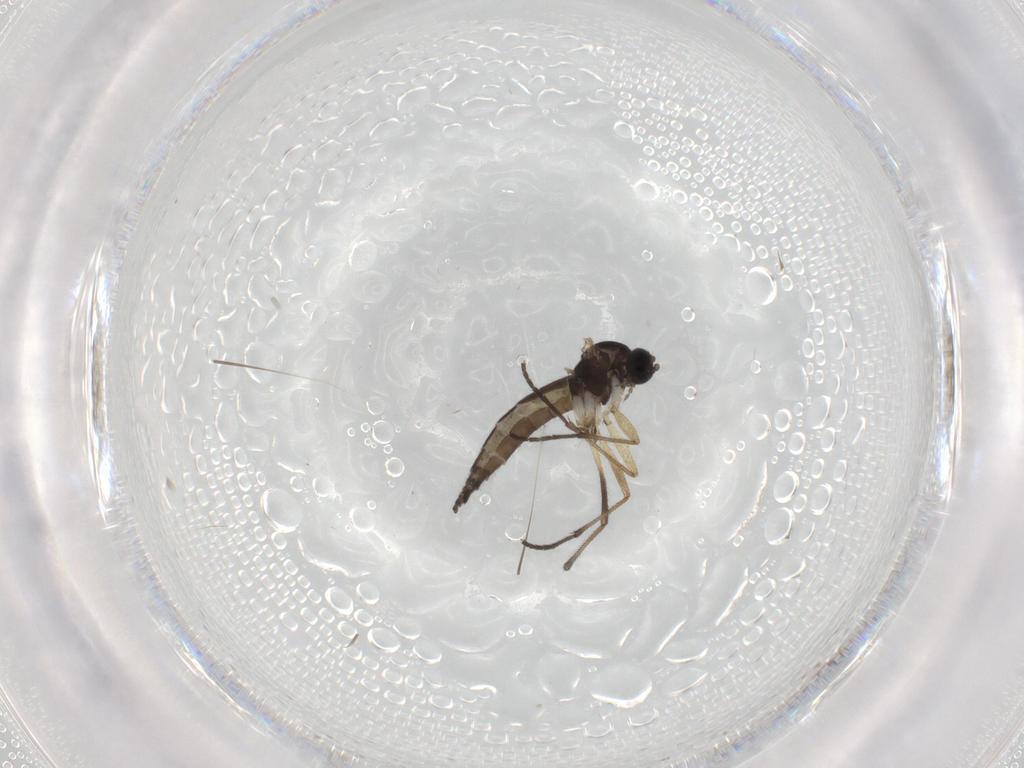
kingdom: Animalia
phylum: Arthropoda
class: Insecta
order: Diptera
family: Sciaridae
